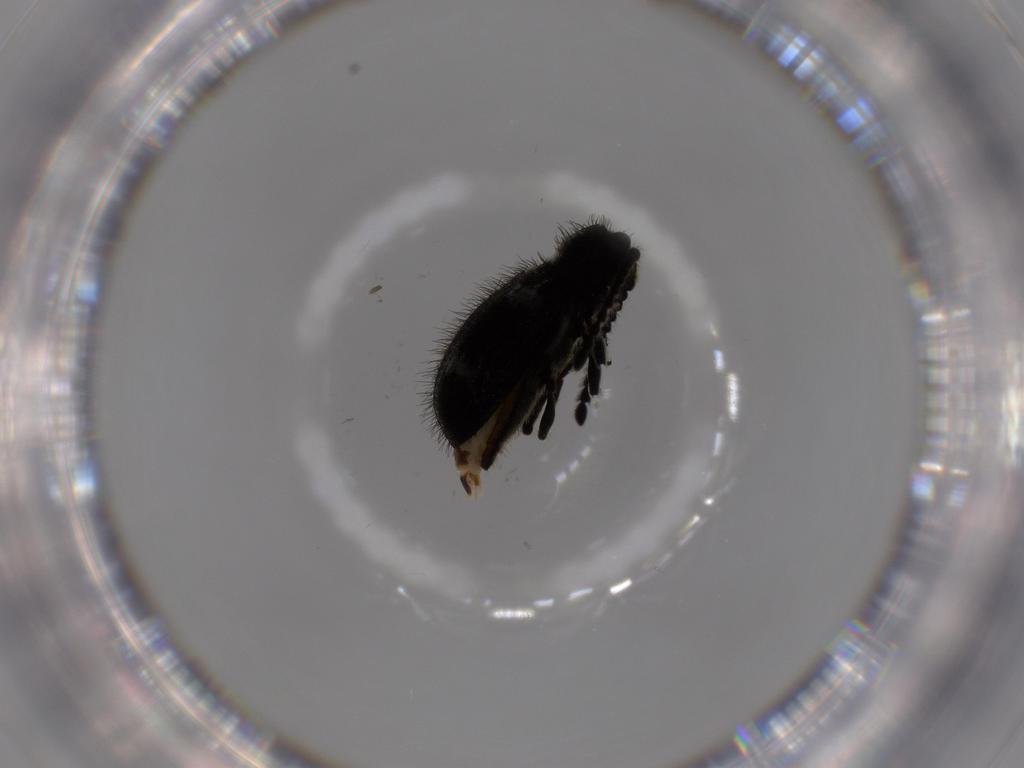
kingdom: Animalia
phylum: Arthropoda
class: Insecta
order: Coleoptera
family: Ptinidae
